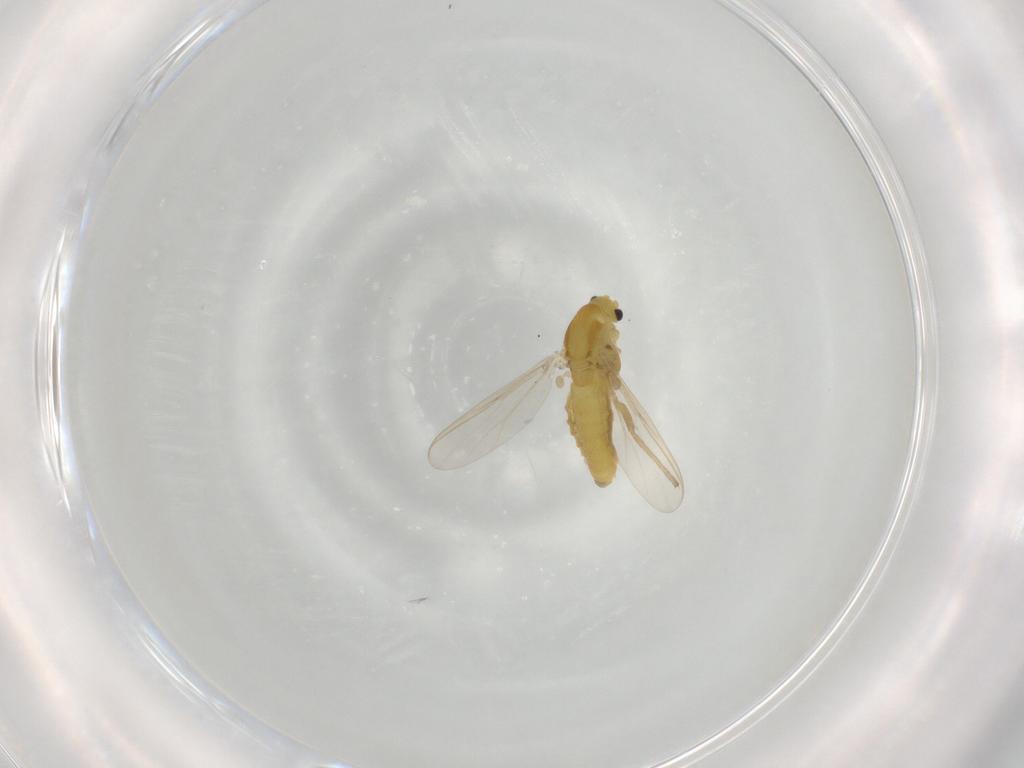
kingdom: Animalia
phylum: Arthropoda
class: Insecta
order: Diptera
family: Chironomidae
